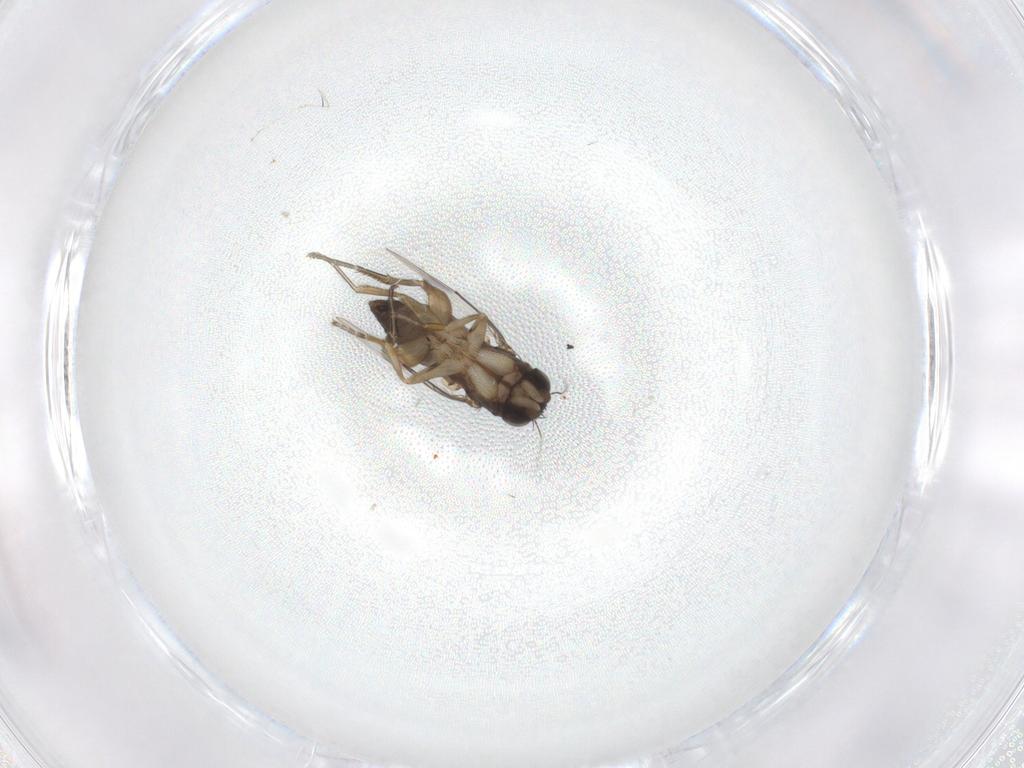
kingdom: Animalia
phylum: Arthropoda
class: Insecta
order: Diptera
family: Phoridae
